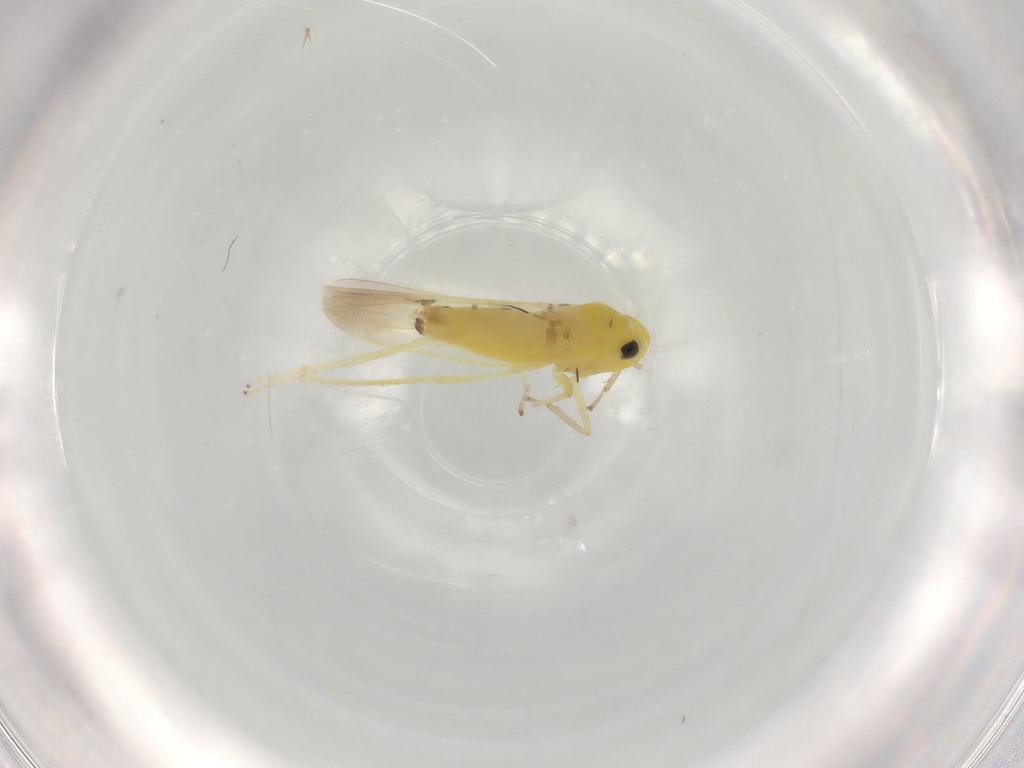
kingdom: Animalia
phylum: Arthropoda
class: Insecta
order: Hemiptera
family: Cicadellidae
